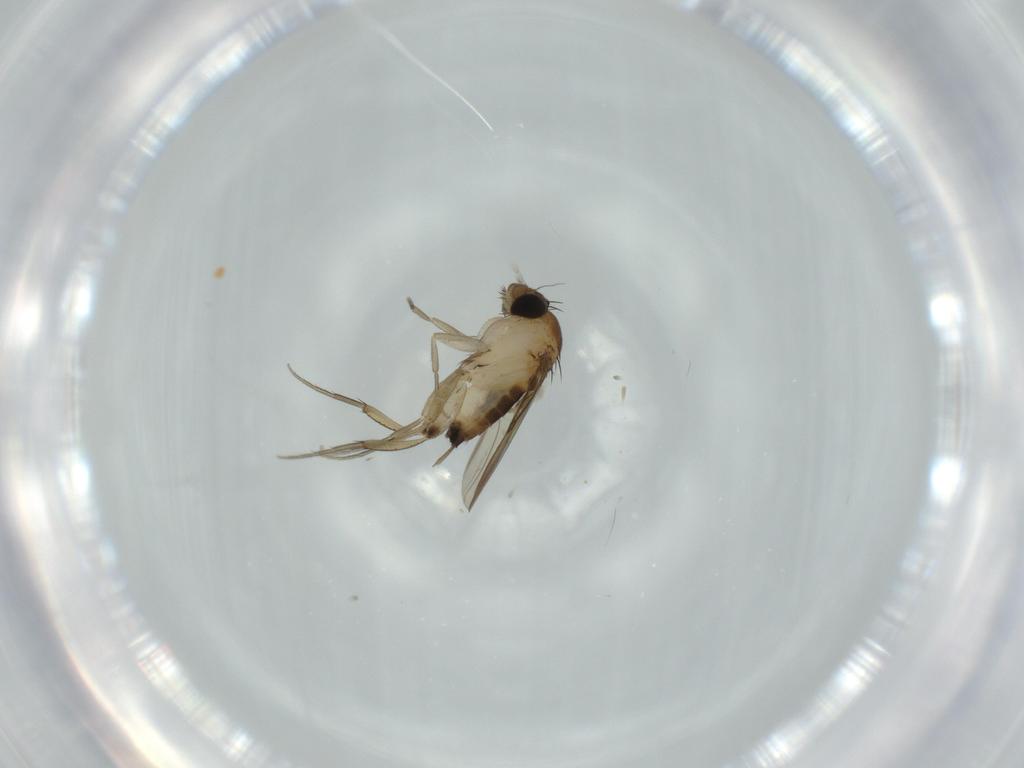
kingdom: Animalia
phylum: Arthropoda
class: Insecta
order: Diptera
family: Phoridae
